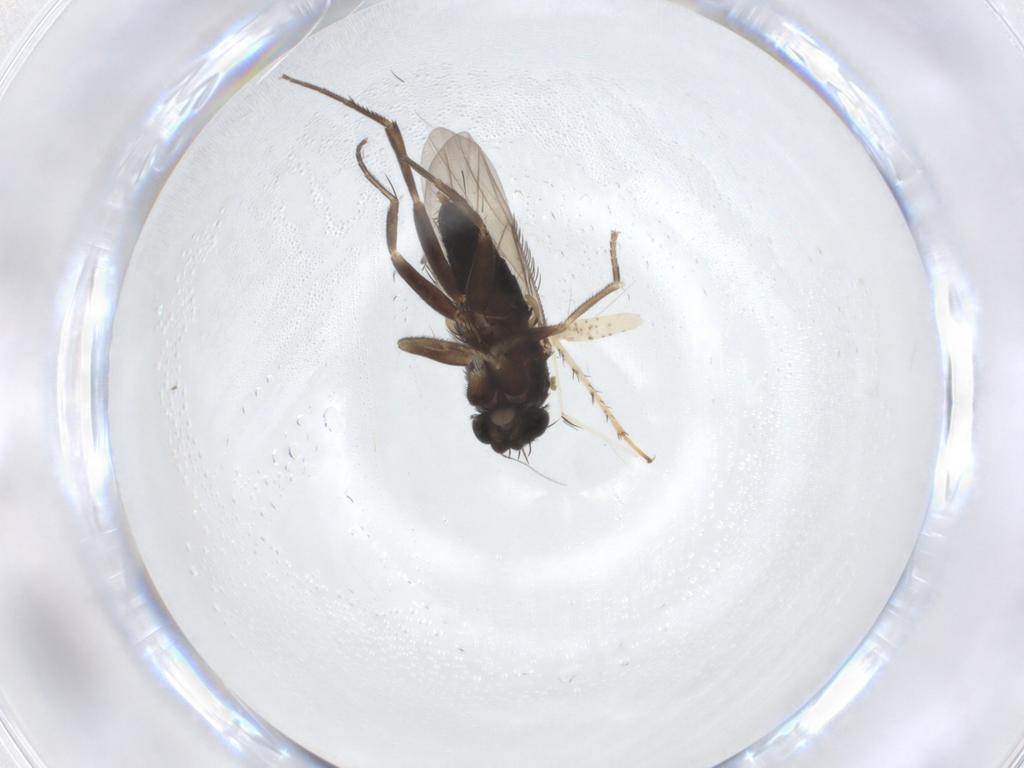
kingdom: Animalia
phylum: Arthropoda
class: Insecta
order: Diptera
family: Phoridae
